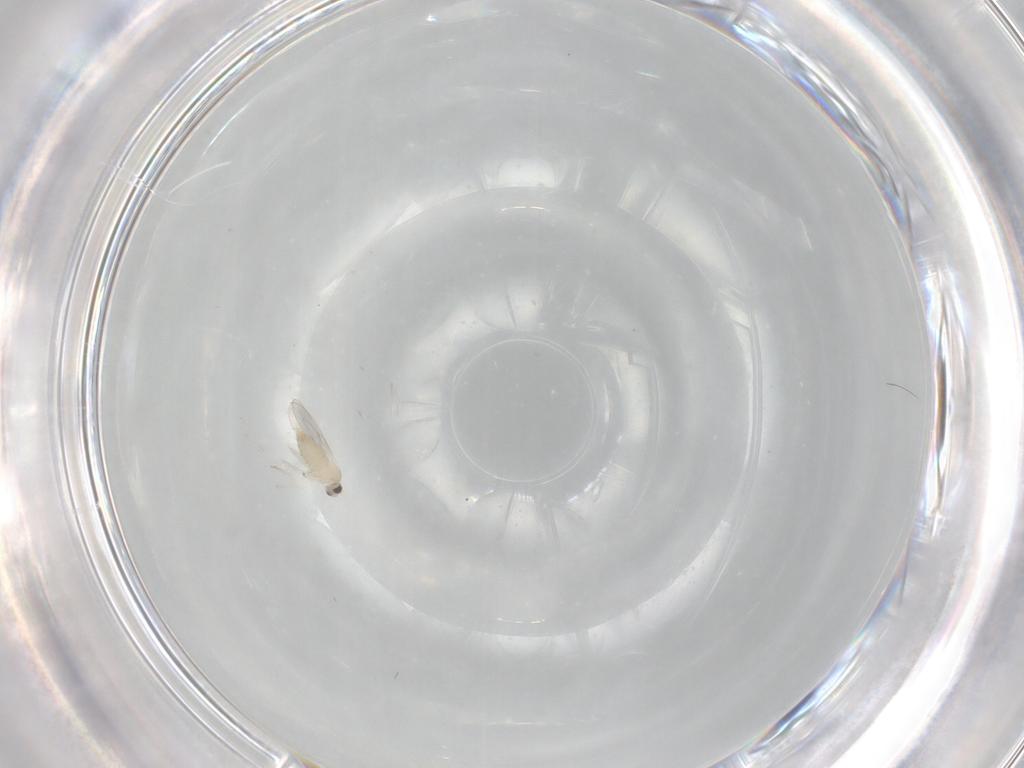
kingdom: Animalia
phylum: Arthropoda
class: Insecta
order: Diptera
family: Cecidomyiidae
